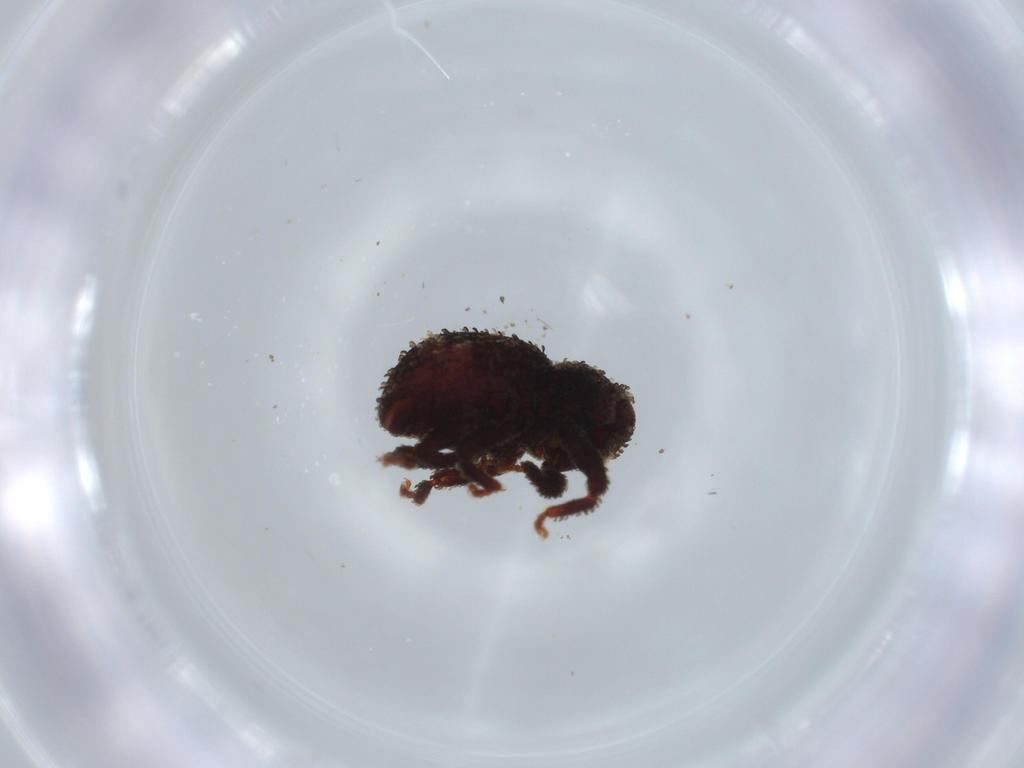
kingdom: Animalia
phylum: Arthropoda
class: Insecta
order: Coleoptera
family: Curculionidae
